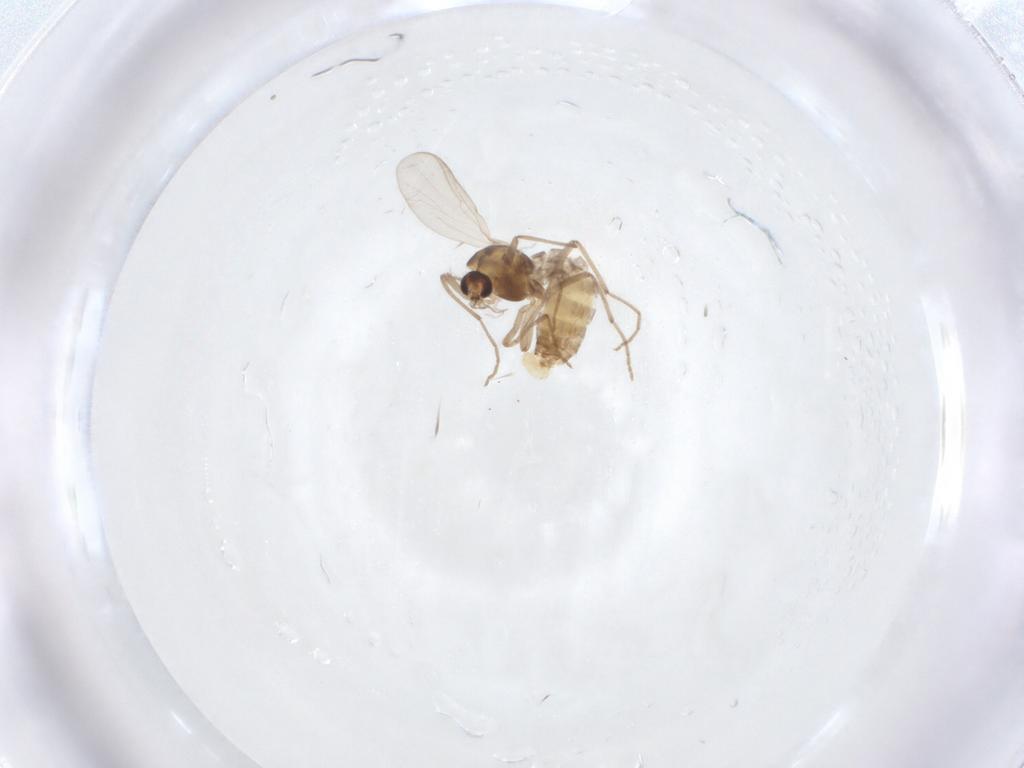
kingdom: Animalia
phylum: Arthropoda
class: Insecta
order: Diptera
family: Chironomidae
